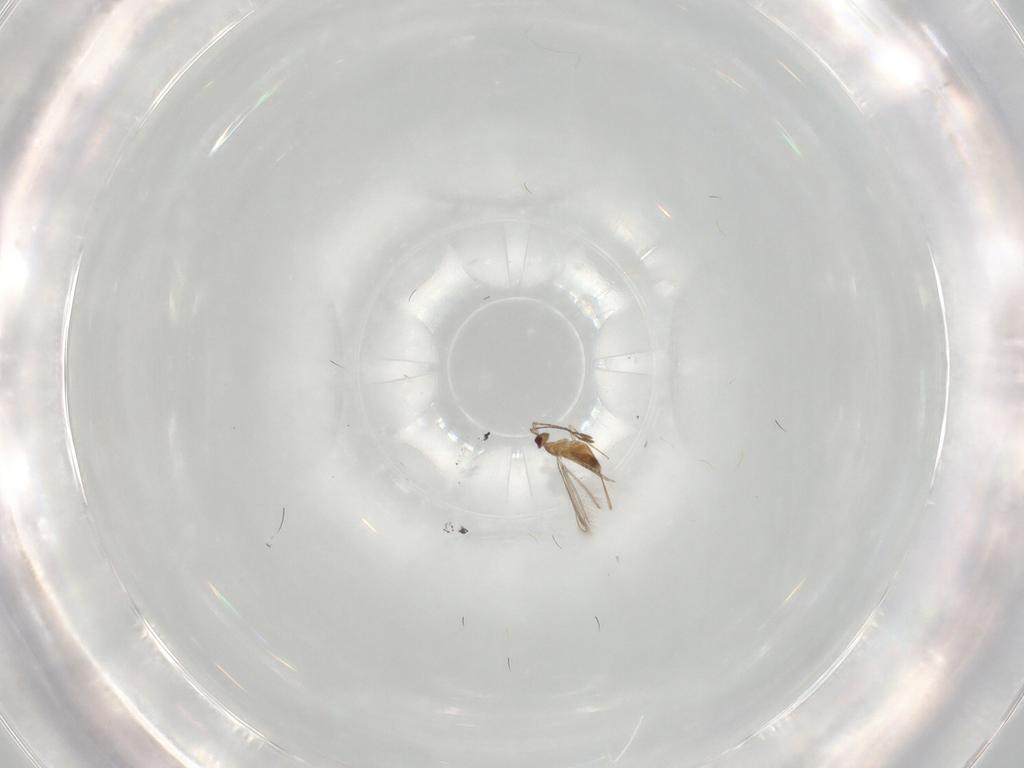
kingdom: Animalia
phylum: Arthropoda
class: Insecta
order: Hymenoptera
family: Mymaridae
